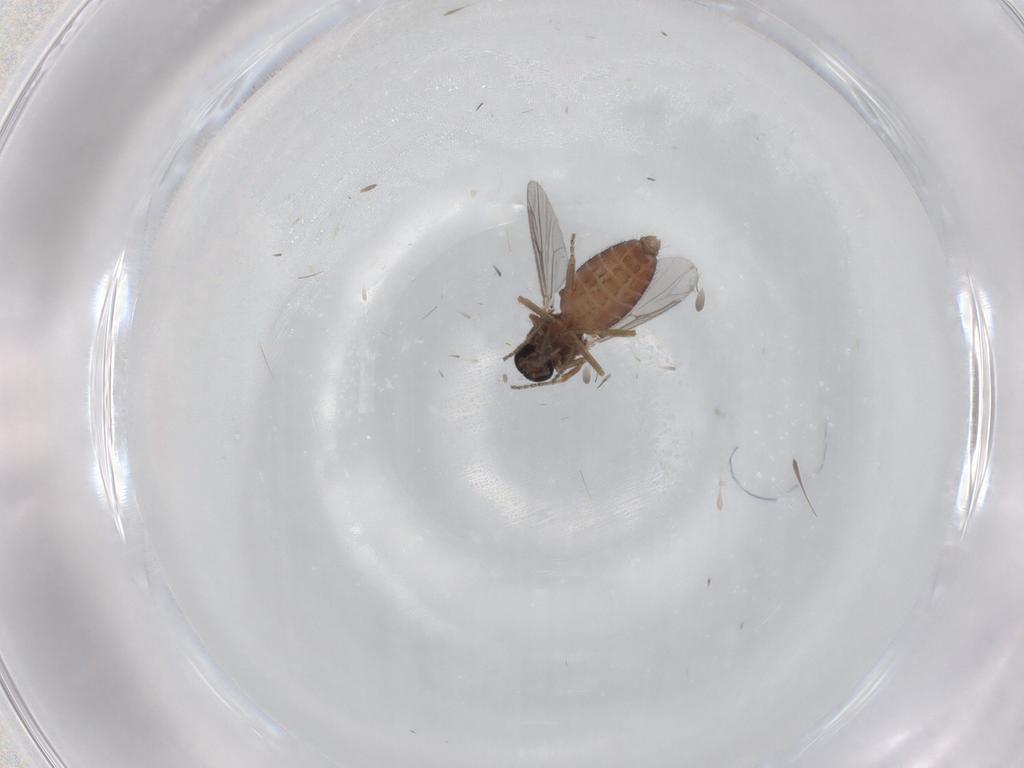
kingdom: Animalia
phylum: Arthropoda
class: Insecta
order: Diptera
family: Ceratopogonidae
